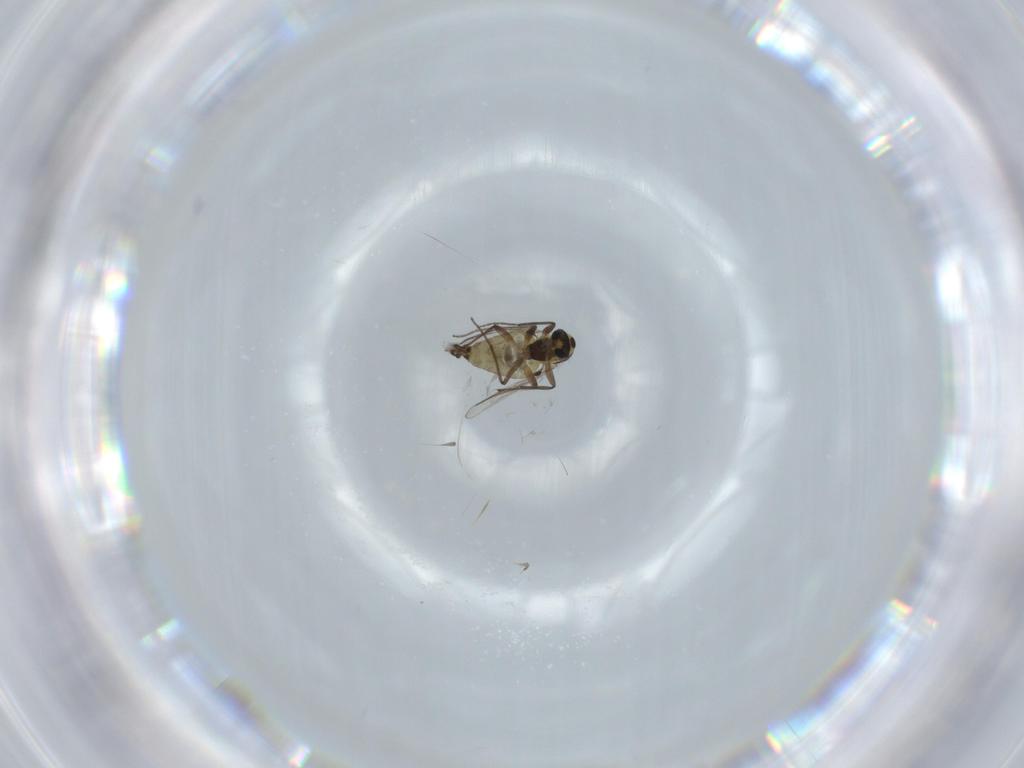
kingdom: Animalia
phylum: Arthropoda
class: Insecta
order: Diptera
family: Chironomidae
